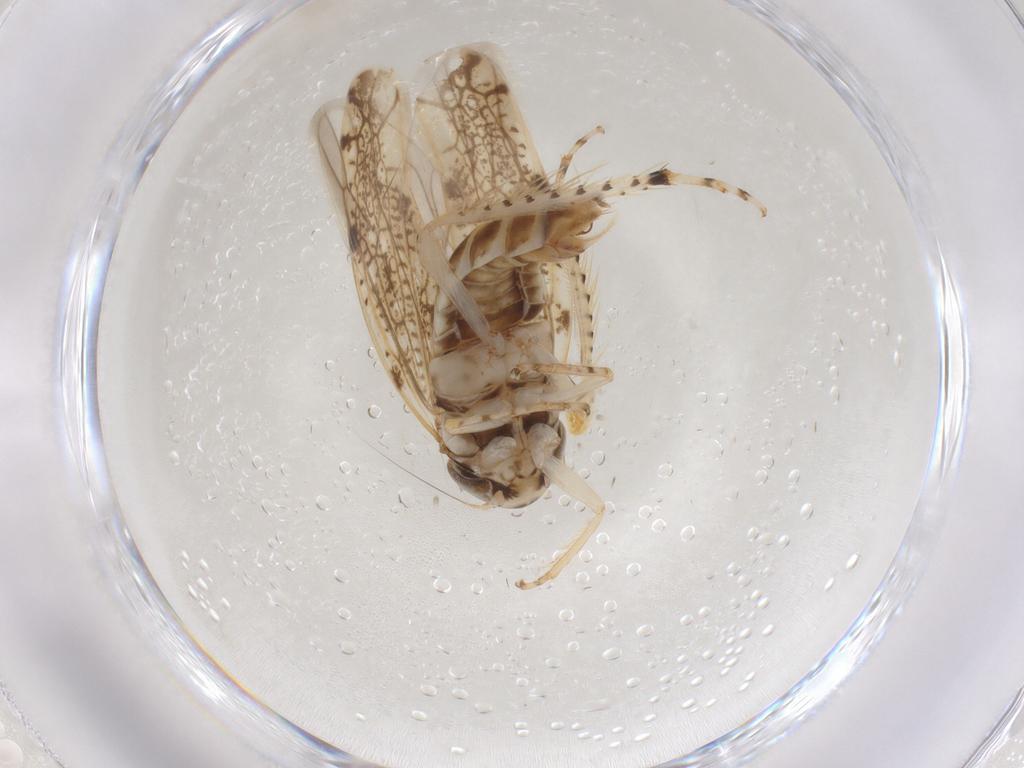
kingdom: Animalia
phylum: Arthropoda
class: Insecta
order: Hemiptera
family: Cicadellidae
